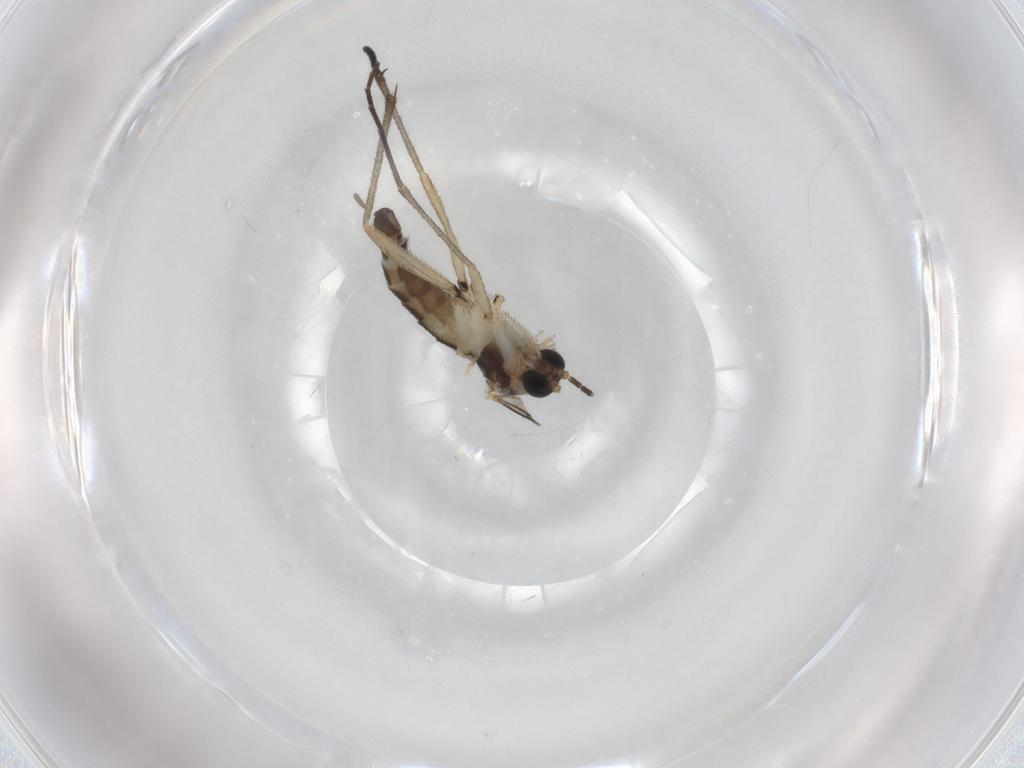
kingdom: Animalia
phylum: Arthropoda
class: Insecta
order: Diptera
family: Sciaridae
